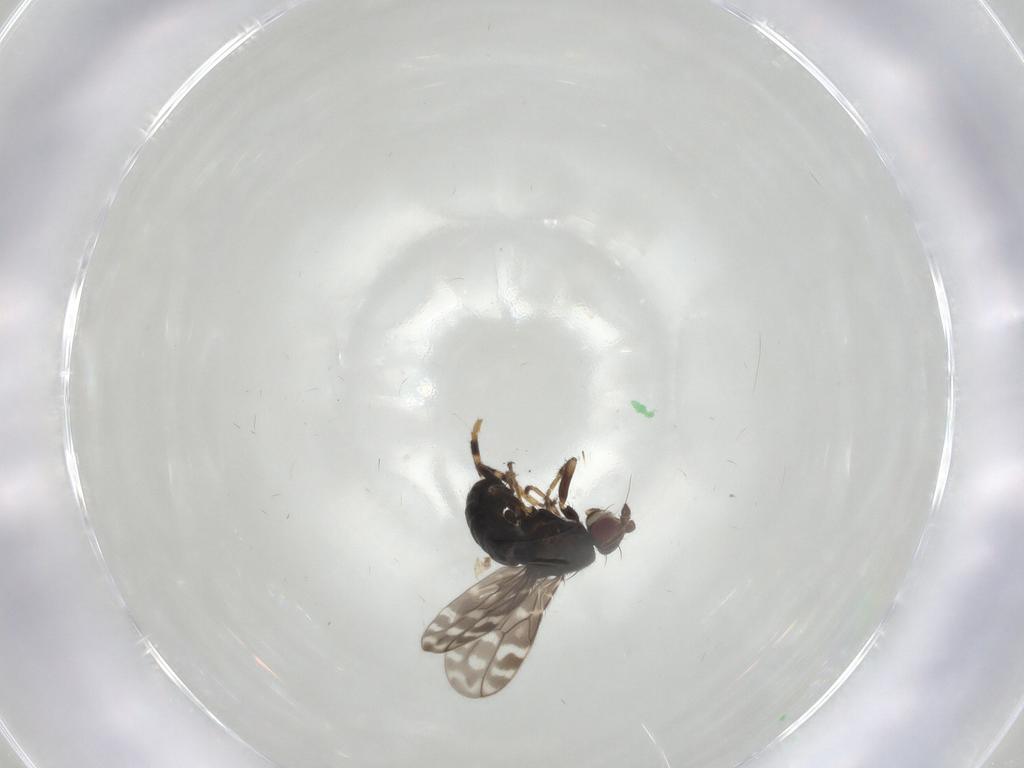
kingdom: Animalia
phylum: Arthropoda
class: Insecta
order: Diptera
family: Sphaeroceridae
